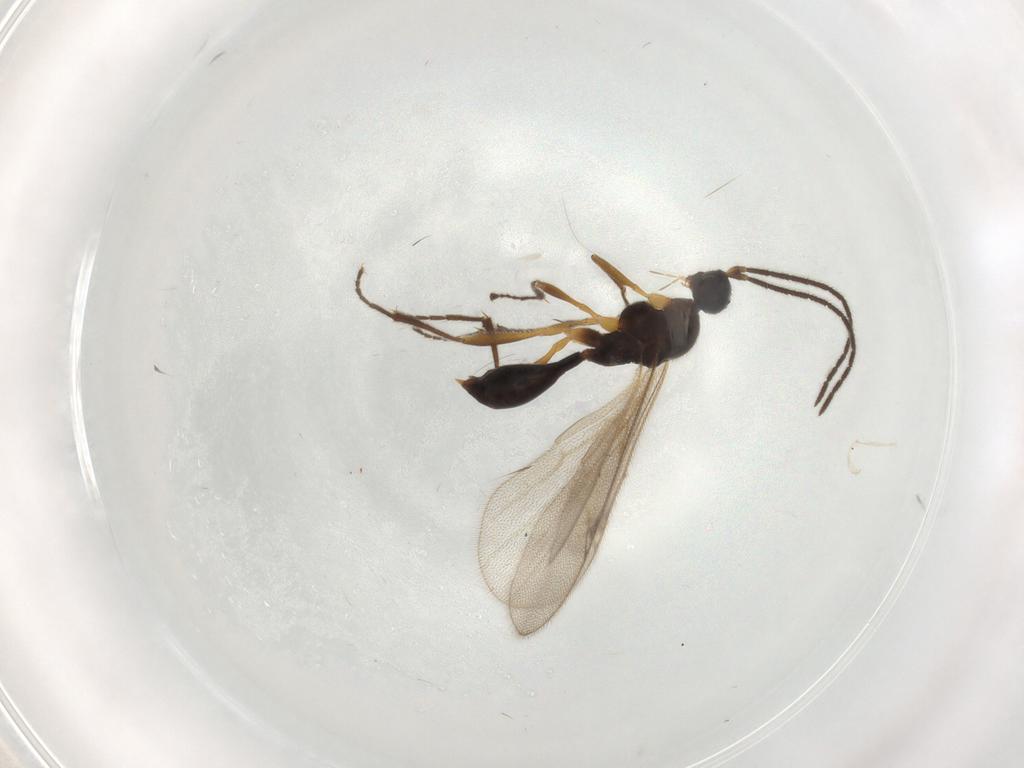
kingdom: Animalia
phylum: Arthropoda
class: Insecta
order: Hymenoptera
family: Proctotrupidae
